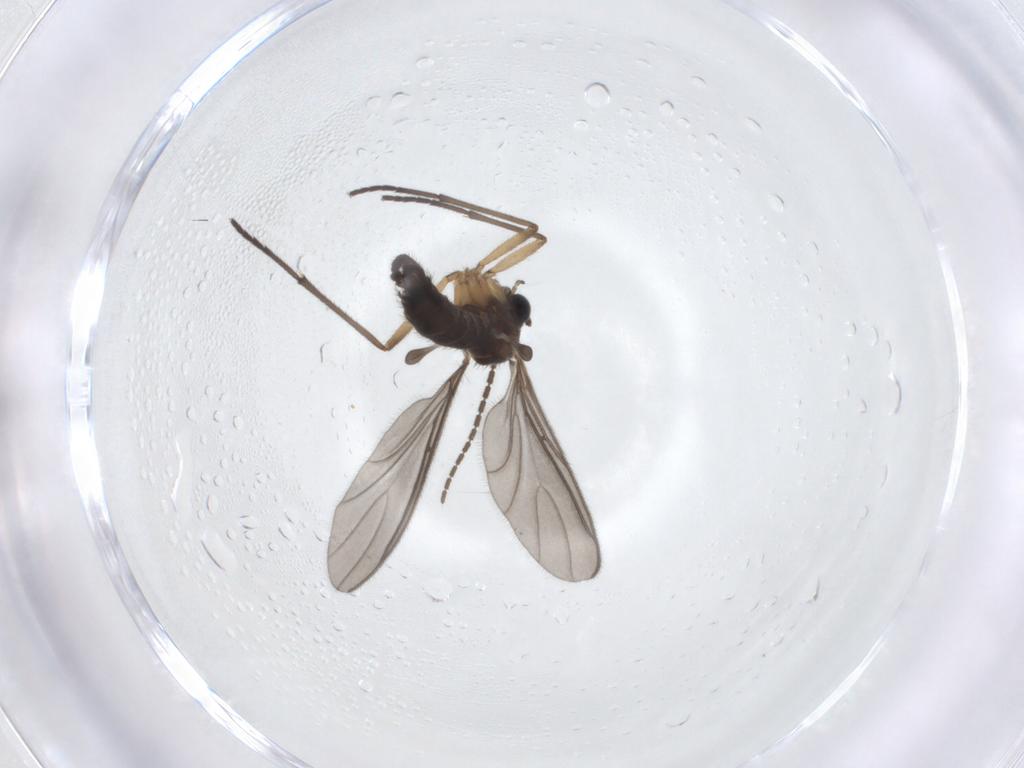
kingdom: Animalia
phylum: Arthropoda
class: Insecta
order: Diptera
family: Sciaridae
